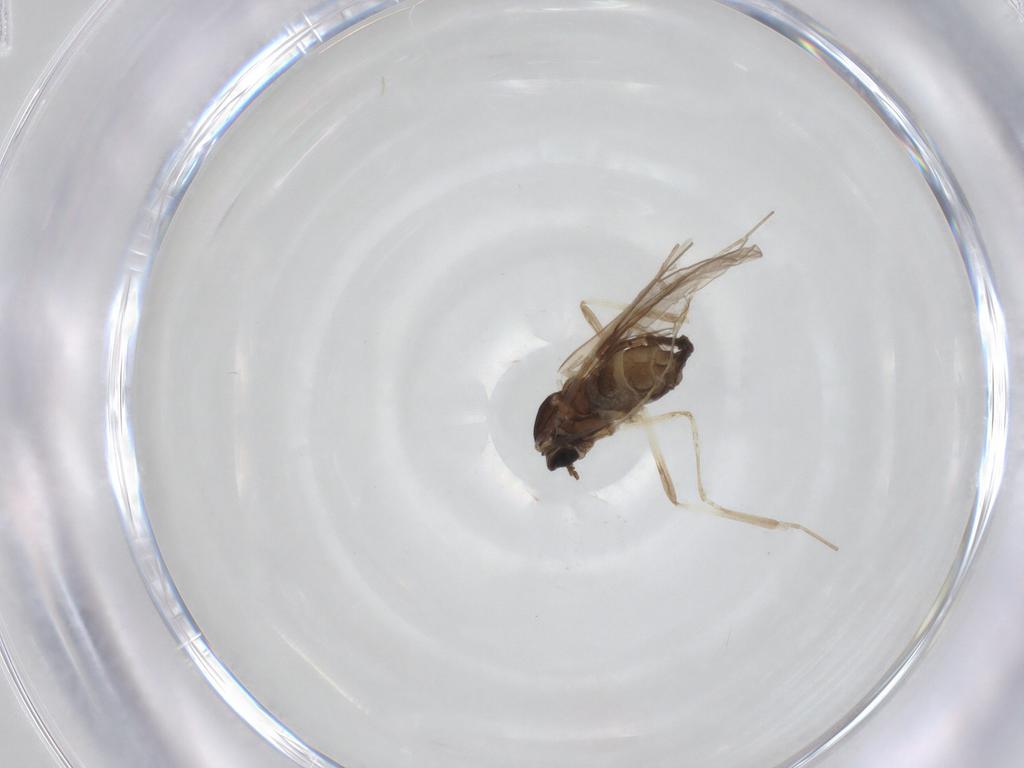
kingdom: Animalia
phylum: Arthropoda
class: Insecta
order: Diptera
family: Cecidomyiidae
